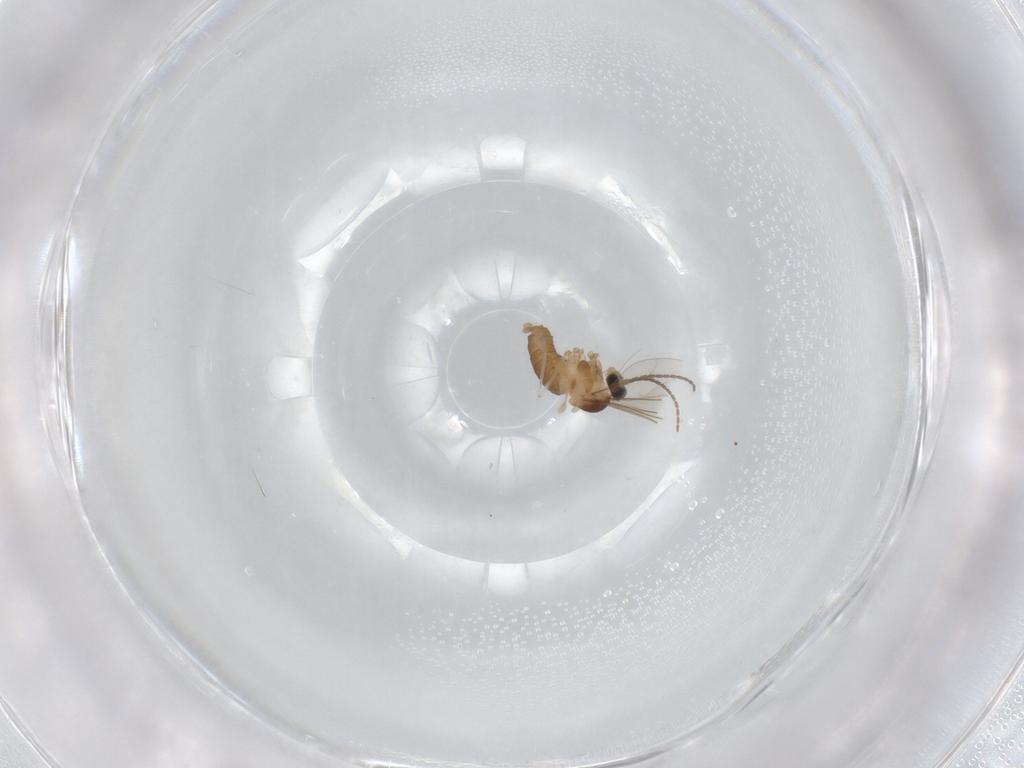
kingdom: Animalia
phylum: Arthropoda
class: Insecta
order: Diptera
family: Cecidomyiidae
